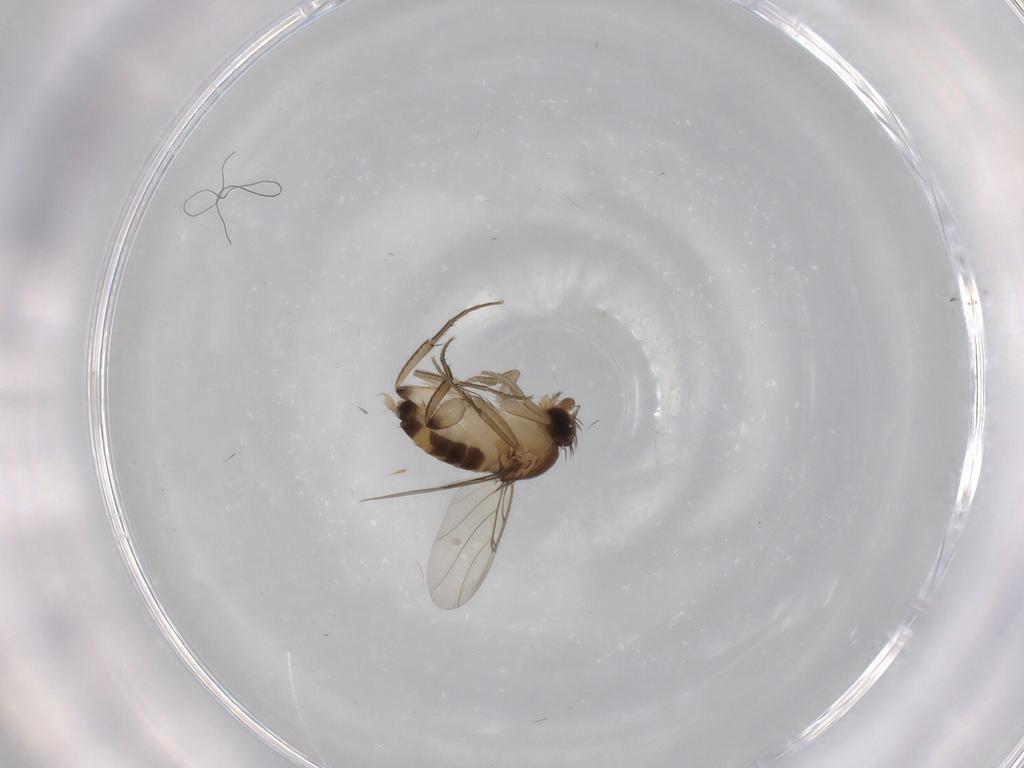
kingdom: Animalia
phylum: Arthropoda
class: Insecta
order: Diptera
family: Phoridae
